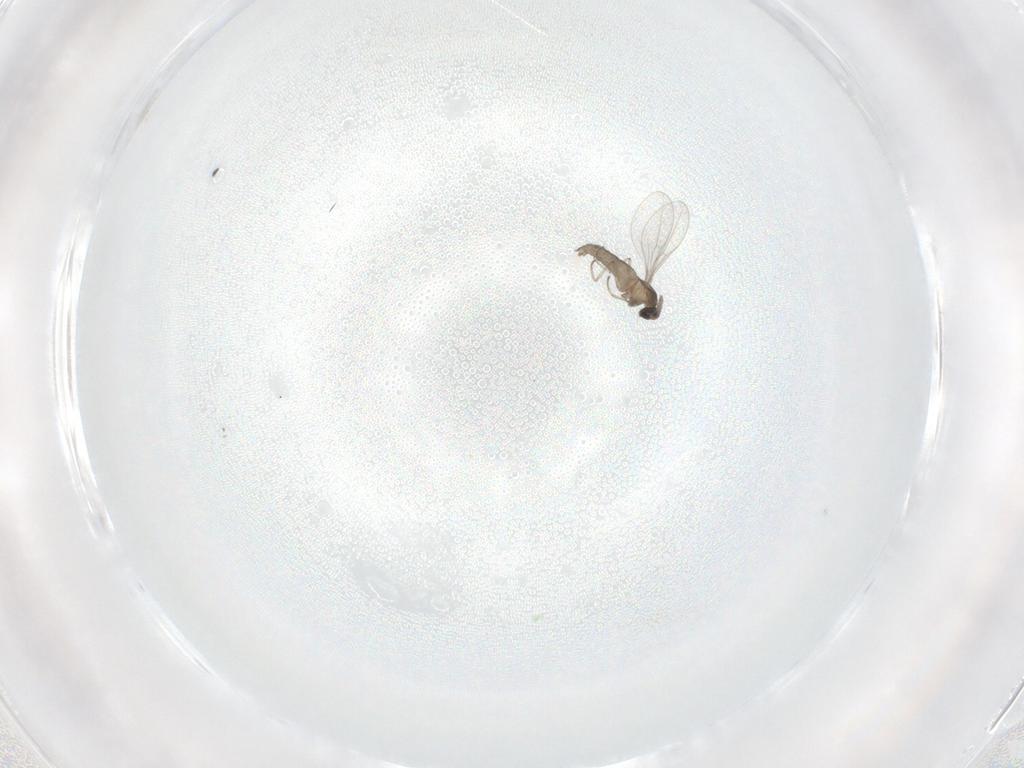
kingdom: Animalia
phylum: Arthropoda
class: Insecta
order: Diptera
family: Cecidomyiidae
